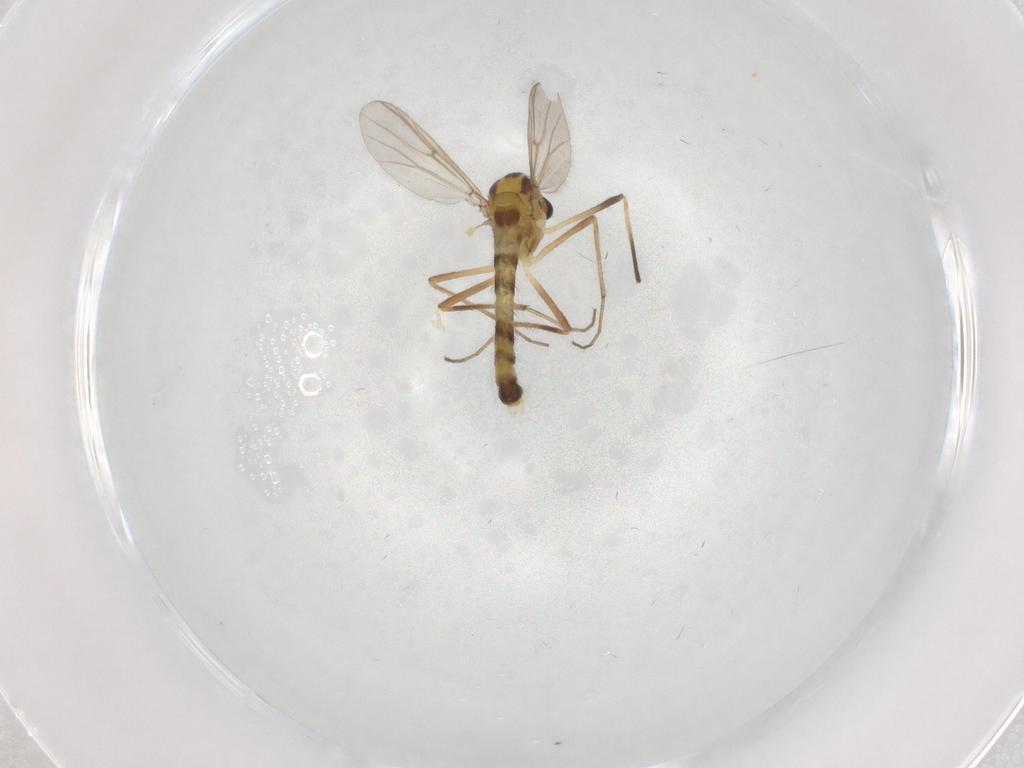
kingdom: Animalia
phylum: Arthropoda
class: Insecta
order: Diptera
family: Chironomidae
